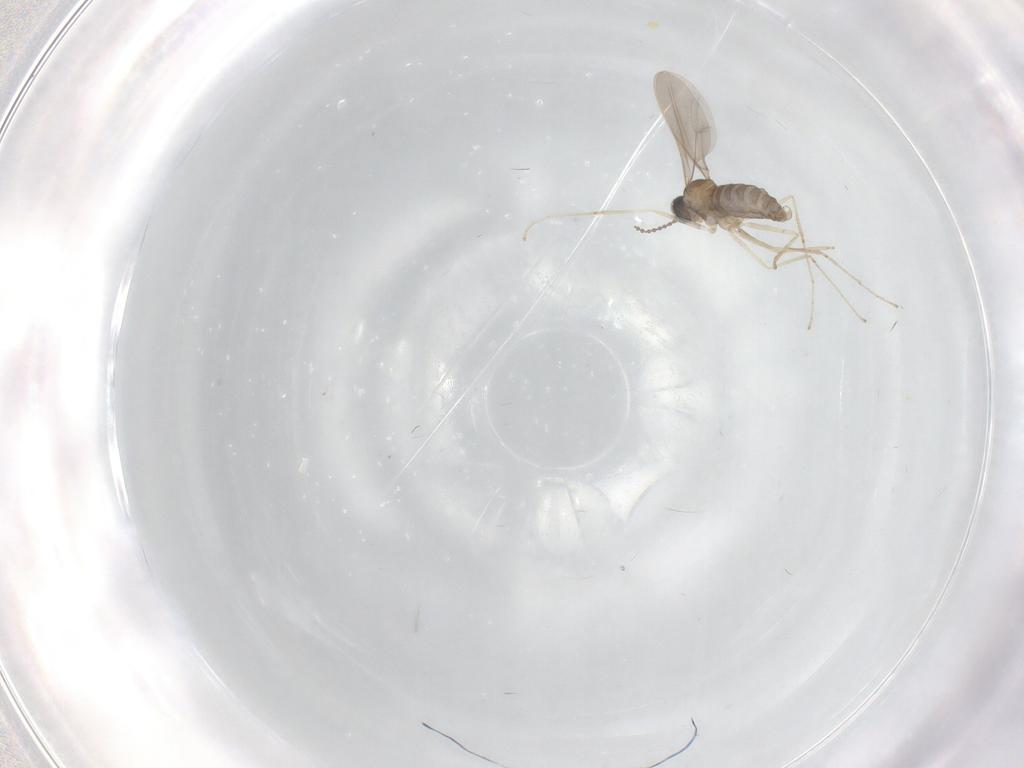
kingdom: Animalia
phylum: Arthropoda
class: Insecta
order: Diptera
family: Cecidomyiidae
